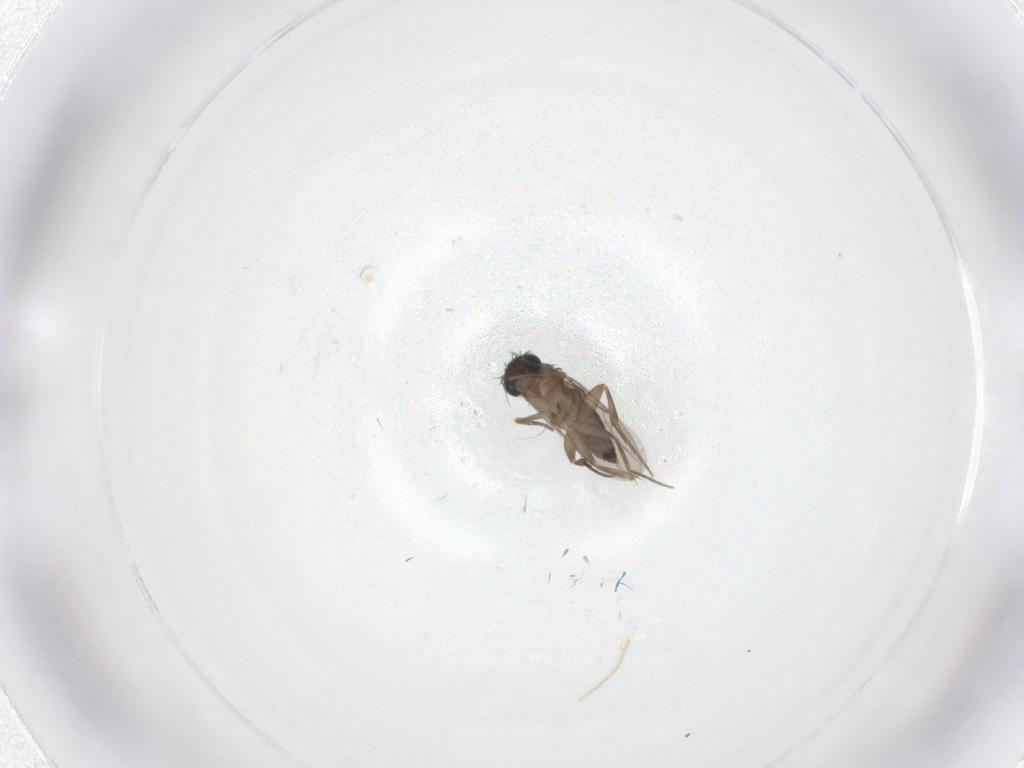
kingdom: Animalia
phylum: Arthropoda
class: Insecta
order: Diptera
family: Phoridae
